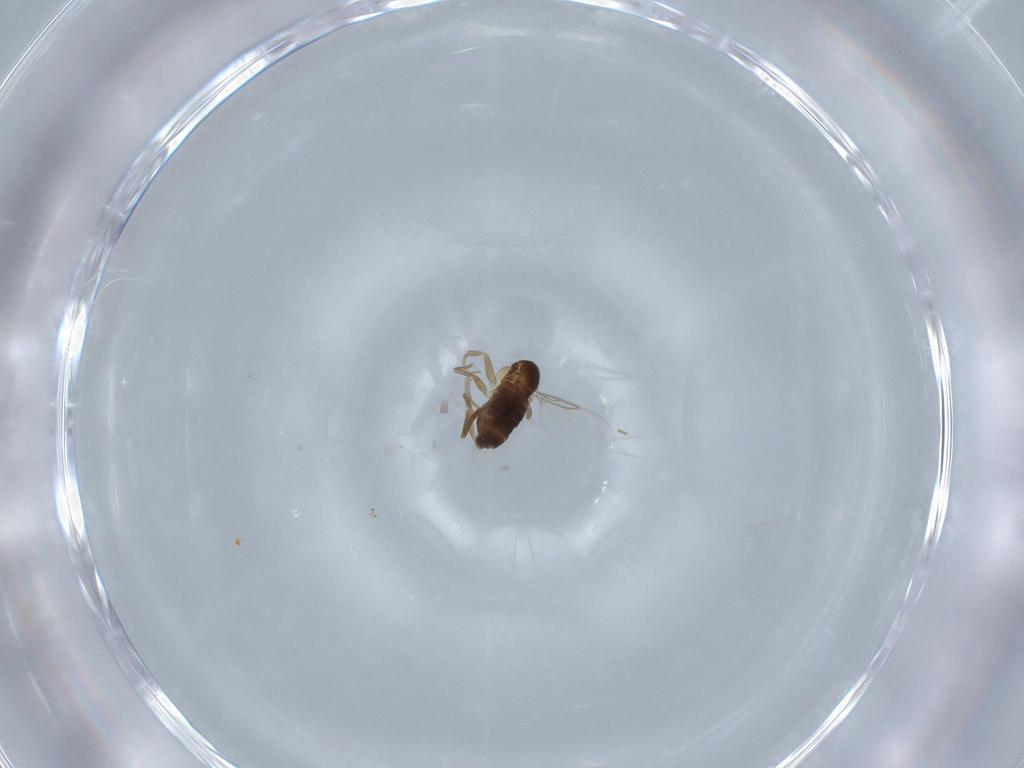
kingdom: Animalia
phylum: Arthropoda
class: Insecta
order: Diptera
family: Phoridae
